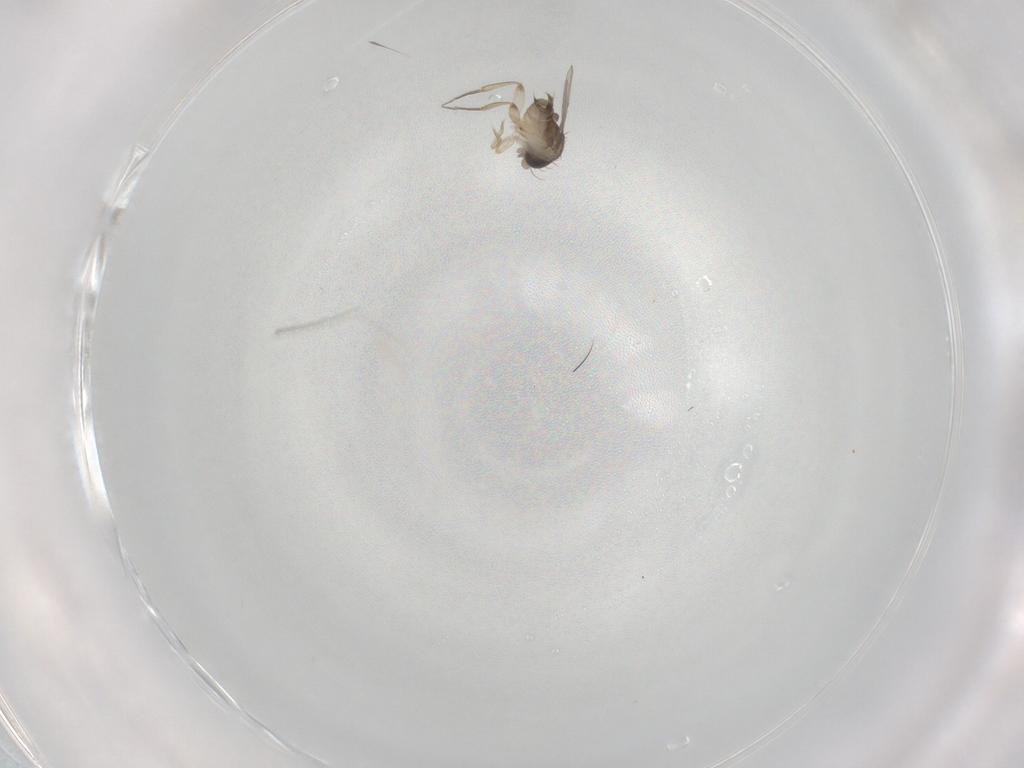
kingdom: Animalia
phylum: Arthropoda
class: Insecta
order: Diptera
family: Phoridae
